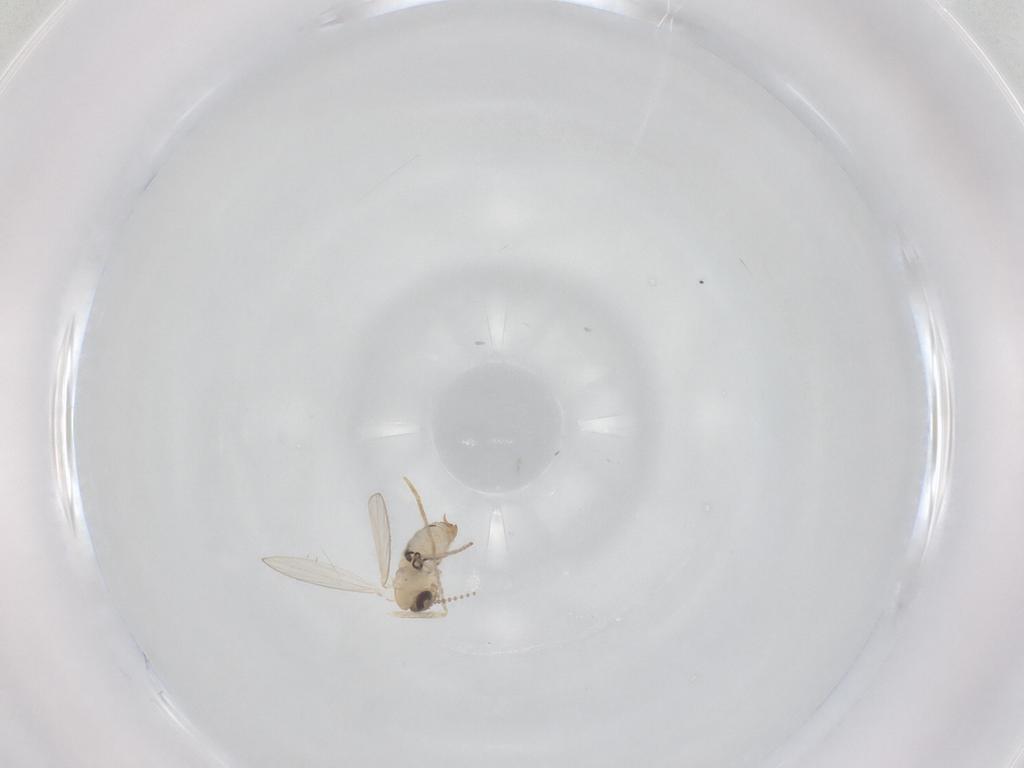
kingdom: Animalia
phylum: Arthropoda
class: Insecta
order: Diptera
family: Psychodidae
